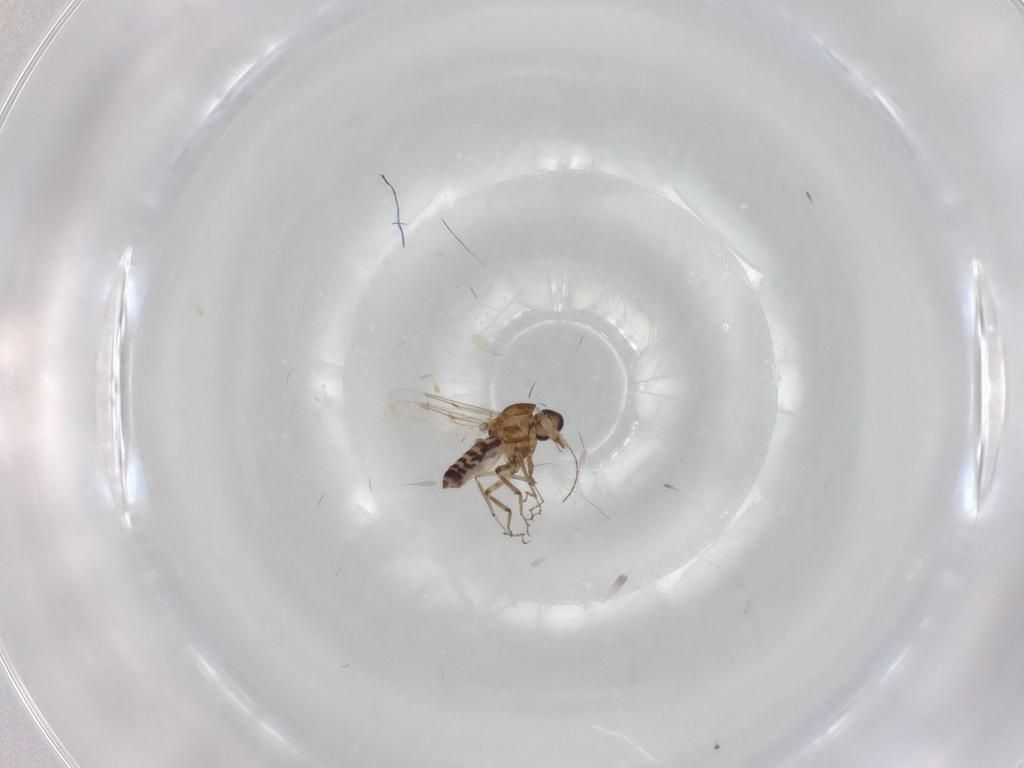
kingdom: Animalia
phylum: Arthropoda
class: Insecta
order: Diptera
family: Ceratopogonidae
